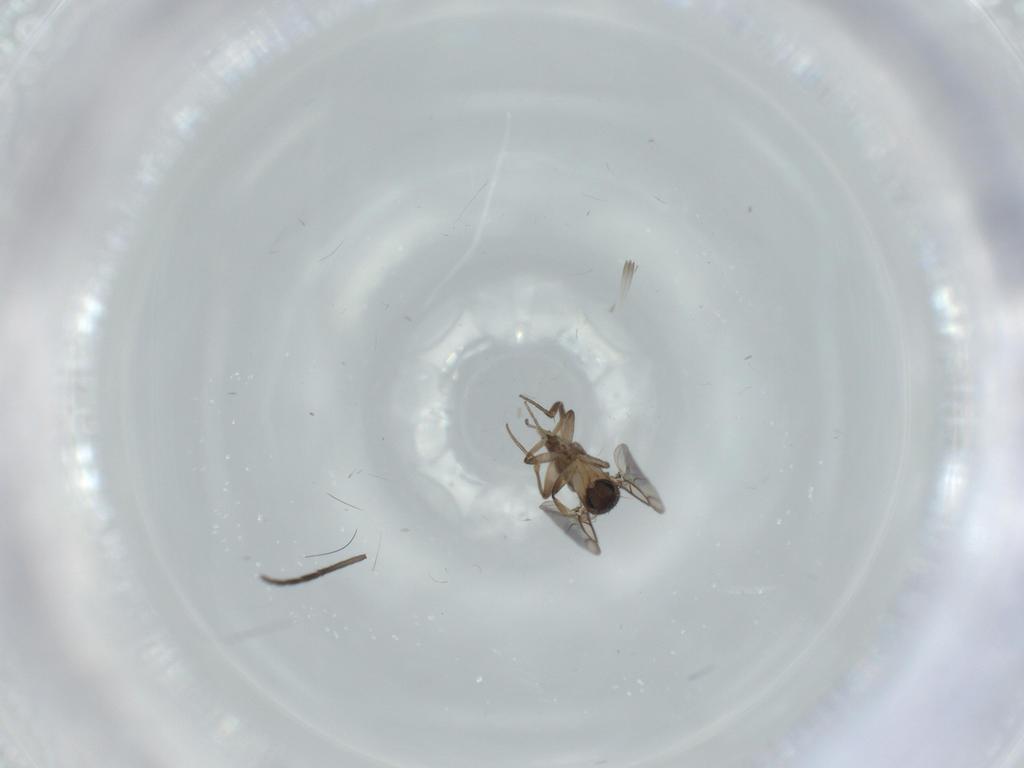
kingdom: Animalia
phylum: Arthropoda
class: Insecta
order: Diptera
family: Phoridae
